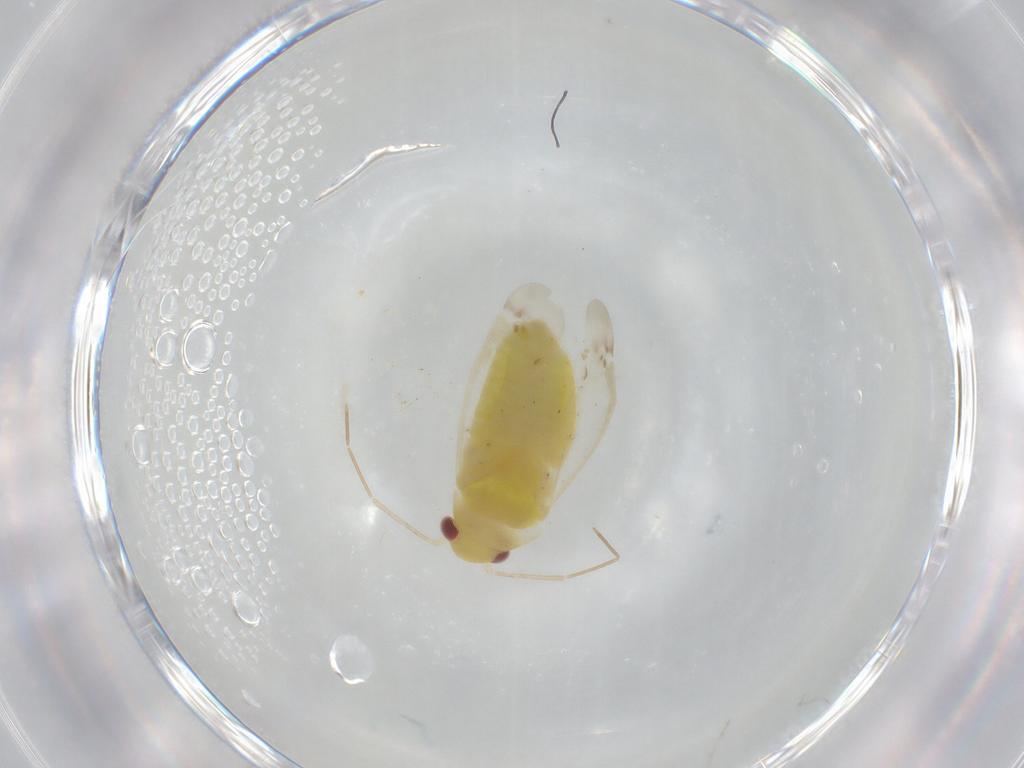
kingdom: Animalia
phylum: Arthropoda
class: Insecta
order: Hemiptera
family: Miridae
